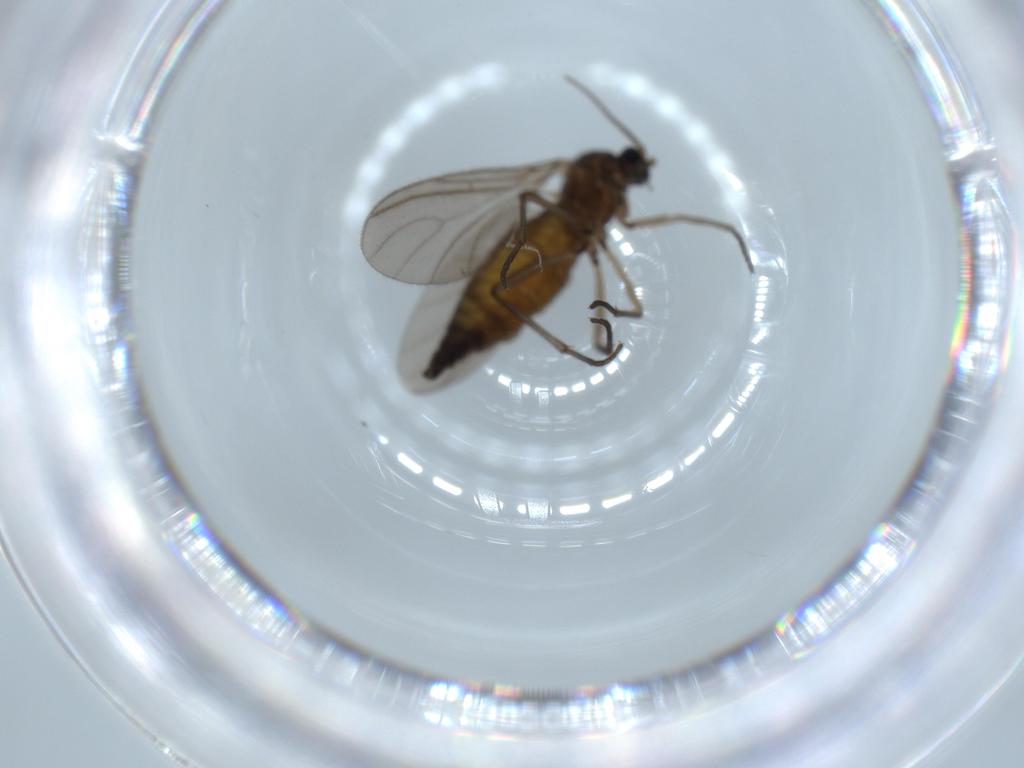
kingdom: Animalia
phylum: Arthropoda
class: Insecta
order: Diptera
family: Sciaridae
